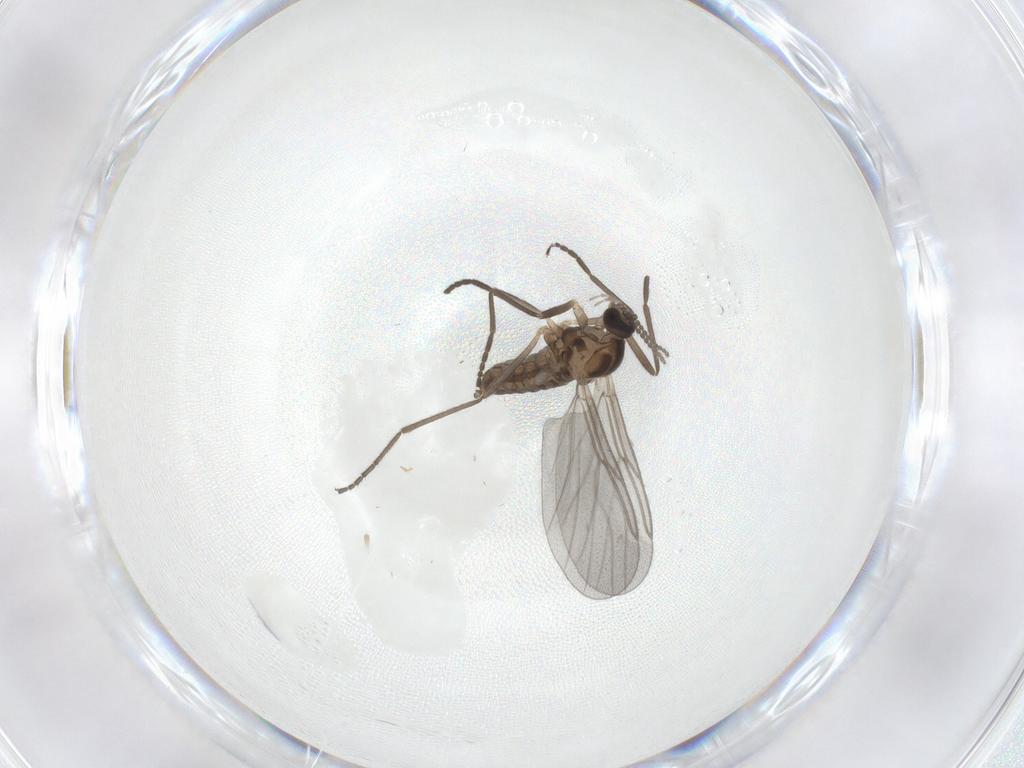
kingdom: Animalia
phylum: Arthropoda
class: Insecta
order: Diptera
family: Cecidomyiidae
